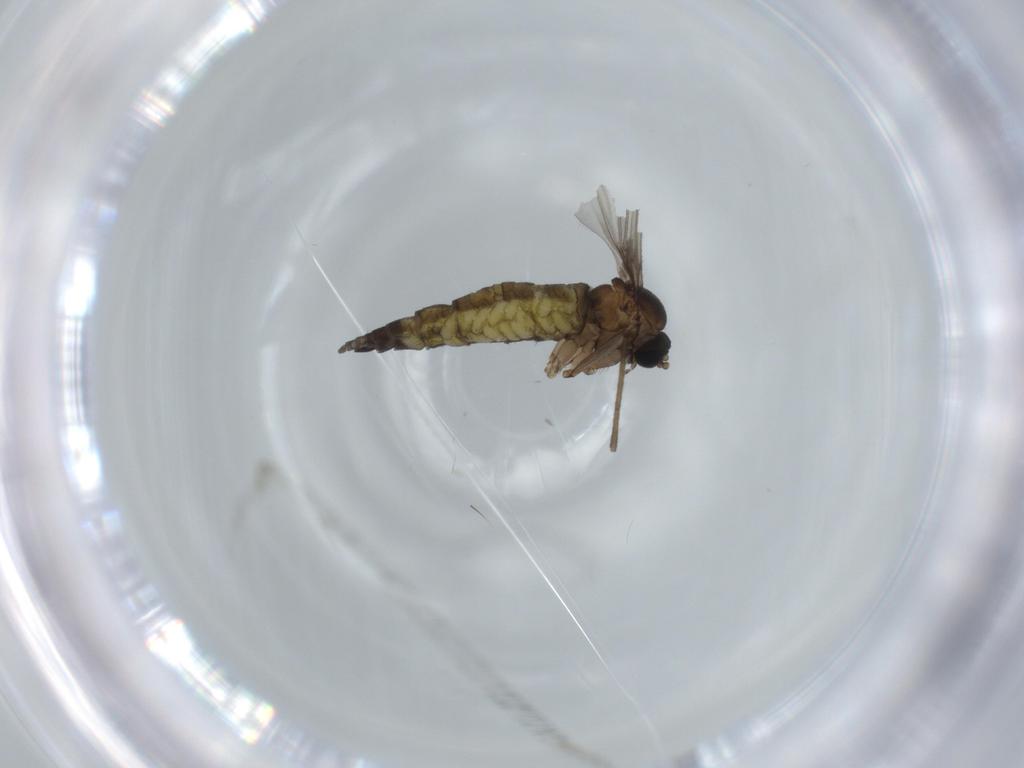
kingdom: Animalia
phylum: Arthropoda
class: Insecta
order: Diptera
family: Sciaridae
